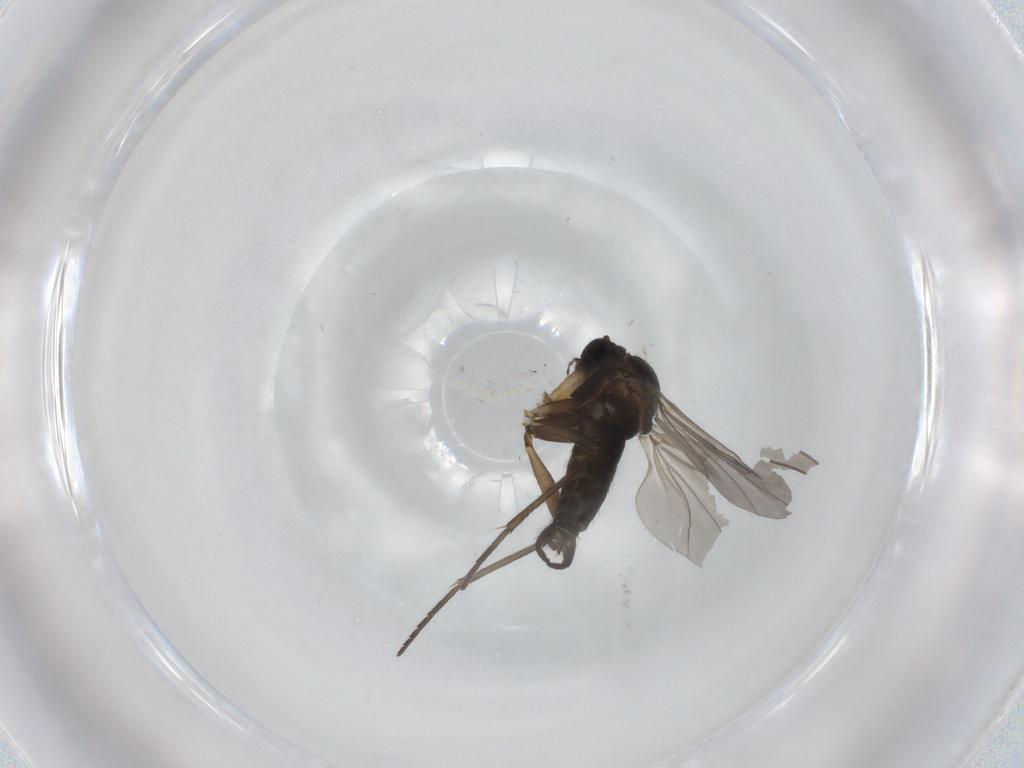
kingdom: Animalia
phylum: Arthropoda
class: Insecta
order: Diptera
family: Sciaridae
